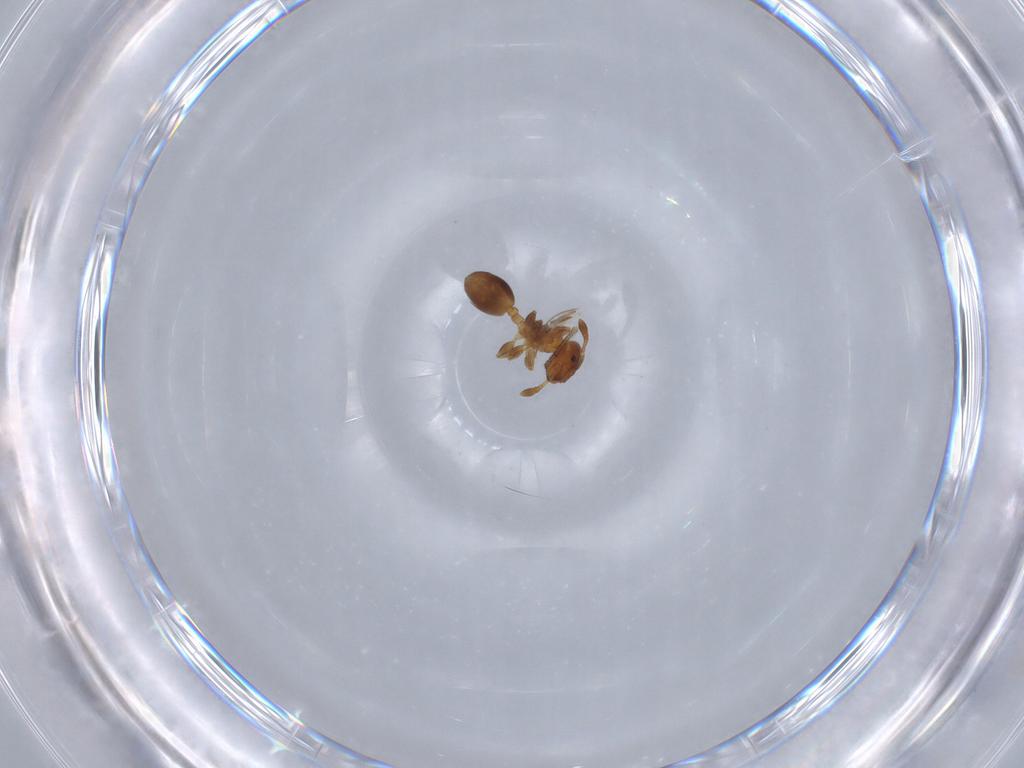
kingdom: Animalia
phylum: Arthropoda
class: Insecta
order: Hymenoptera
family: Formicidae
